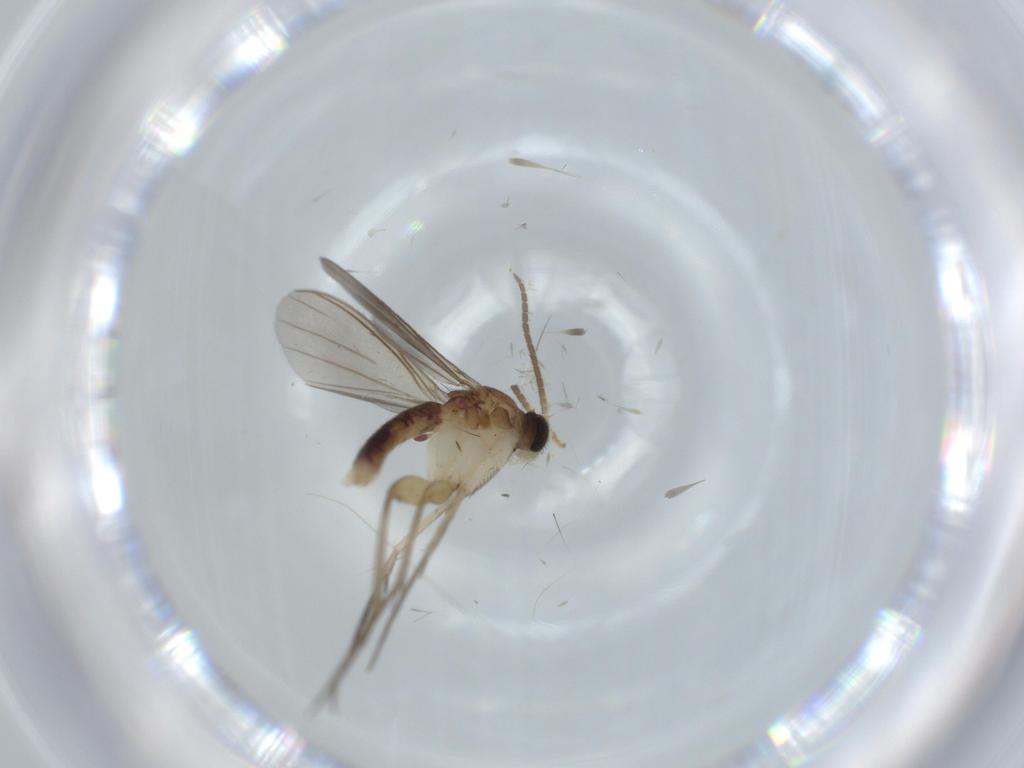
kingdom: Animalia
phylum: Arthropoda
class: Insecta
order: Diptera
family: Mycetophilidae
